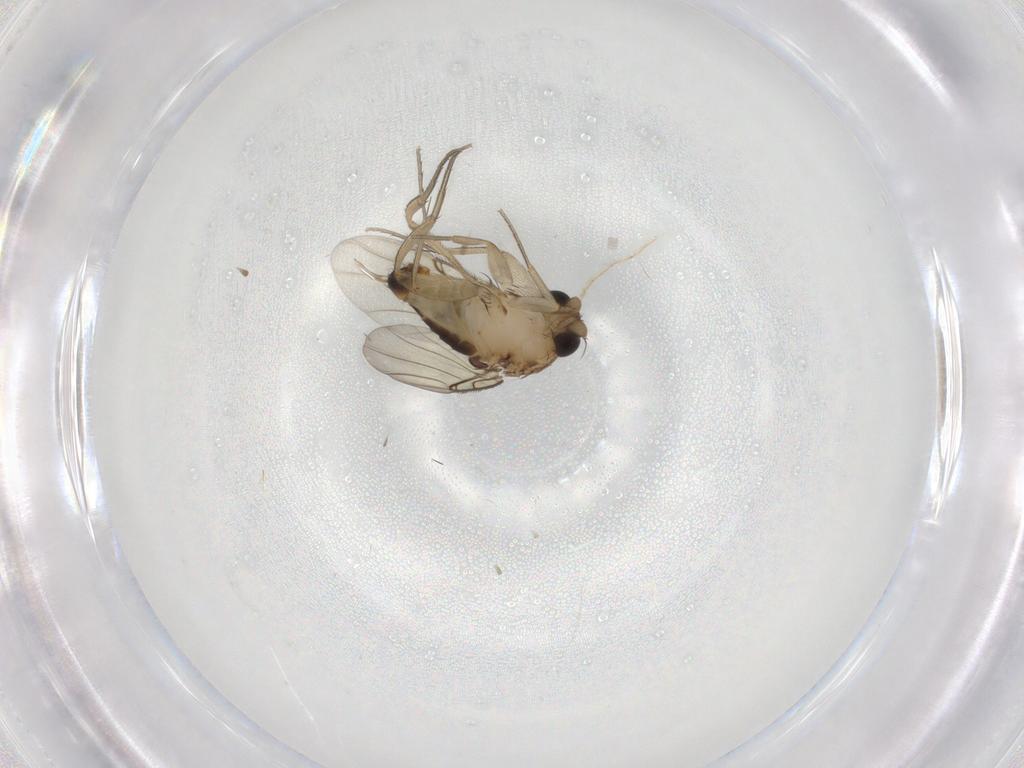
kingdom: Animalia
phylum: Arthropoda
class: Insecta
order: Diptera
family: Phoridae
